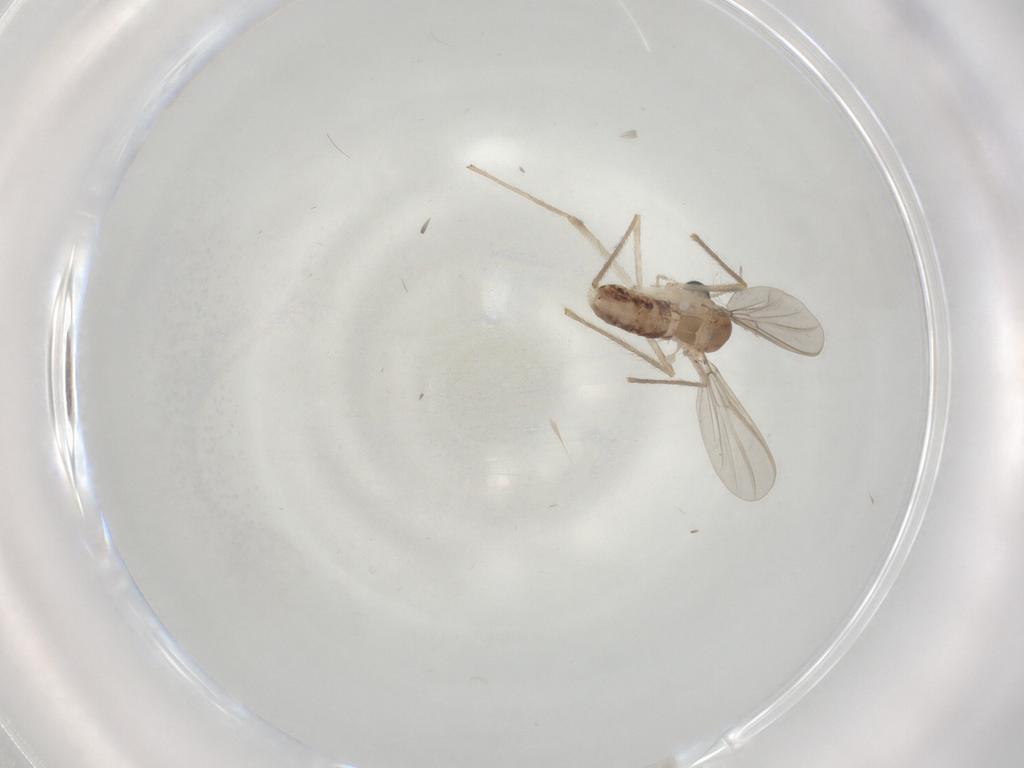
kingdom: Animalia
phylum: Arthropoda
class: Insecta
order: Diptera
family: Chironomidae
